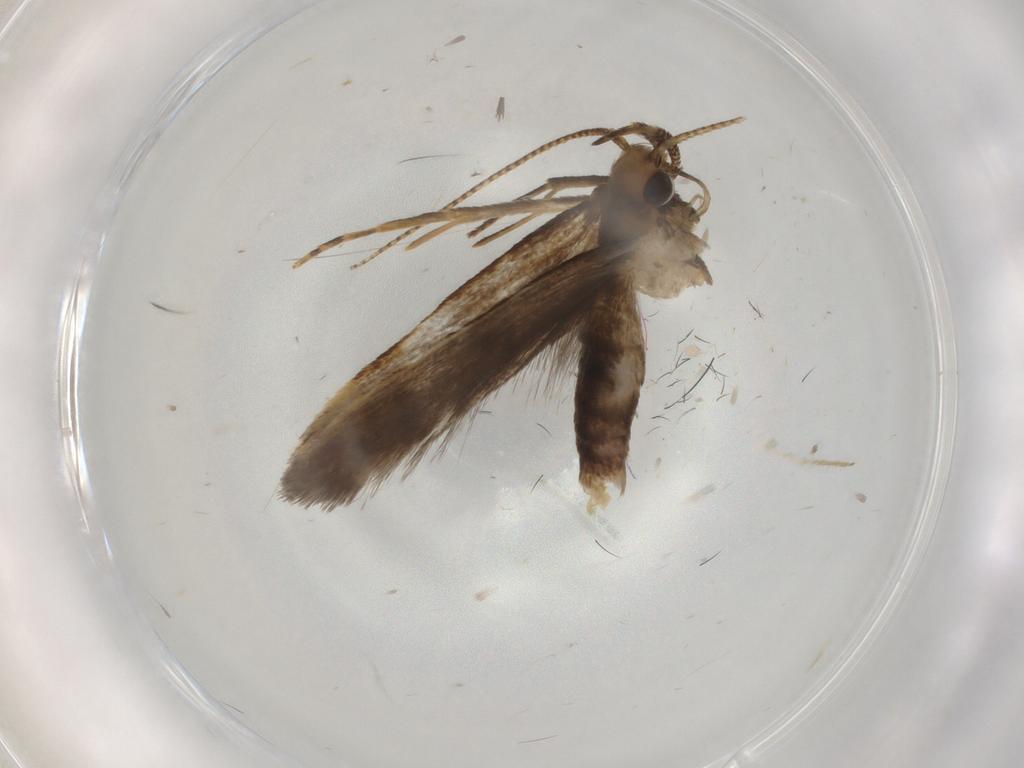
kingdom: Animalia
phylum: Arthropoda
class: Insecta
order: Lepidoptera
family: Gelechiidae
